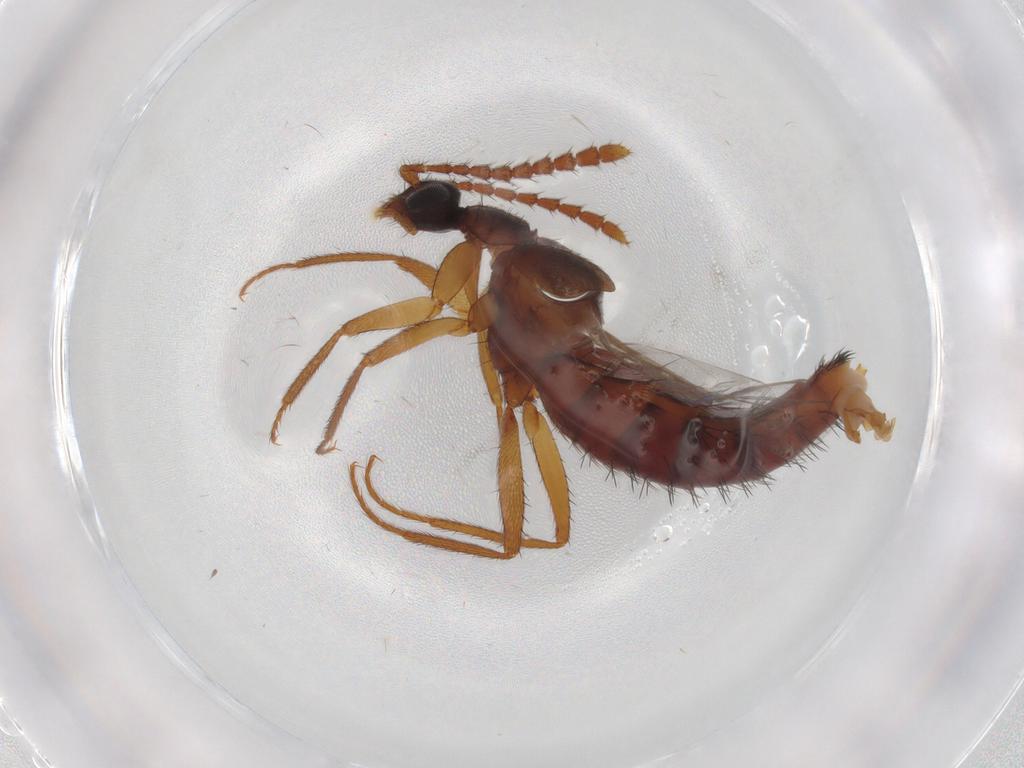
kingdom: Animalia
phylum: Arthropoda
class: Insecta
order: Coleoptera
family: Staphylinidae
